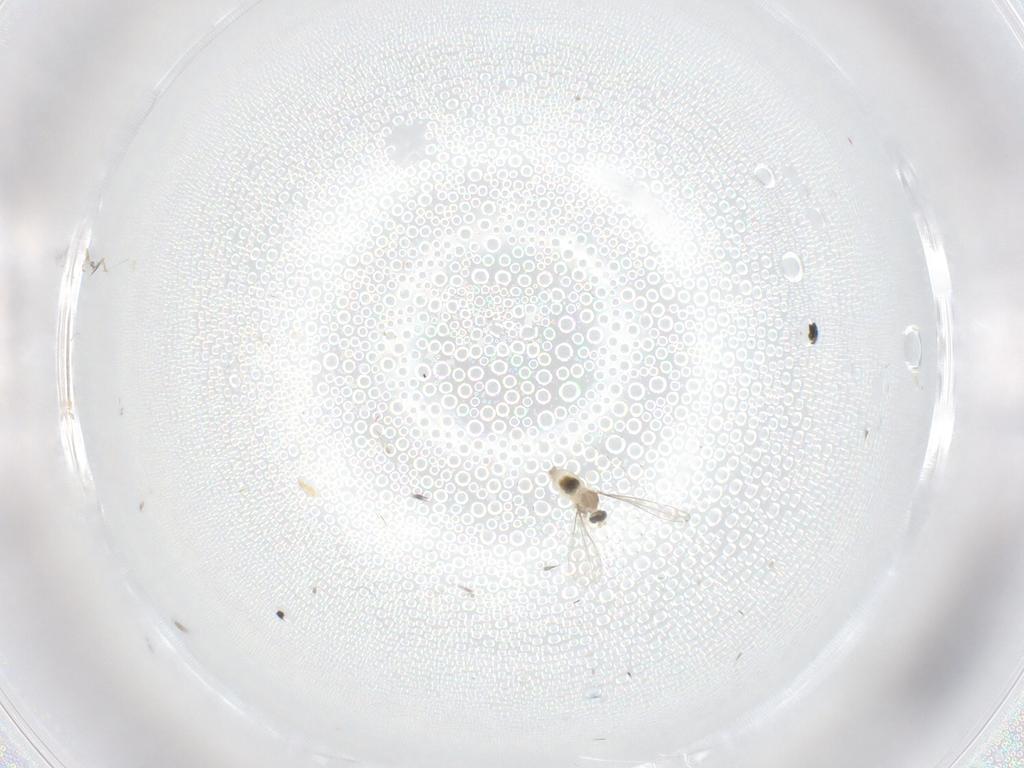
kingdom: Animalia
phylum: Arthropoda
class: Insecta
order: Diptera
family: Cecidomyiidae
